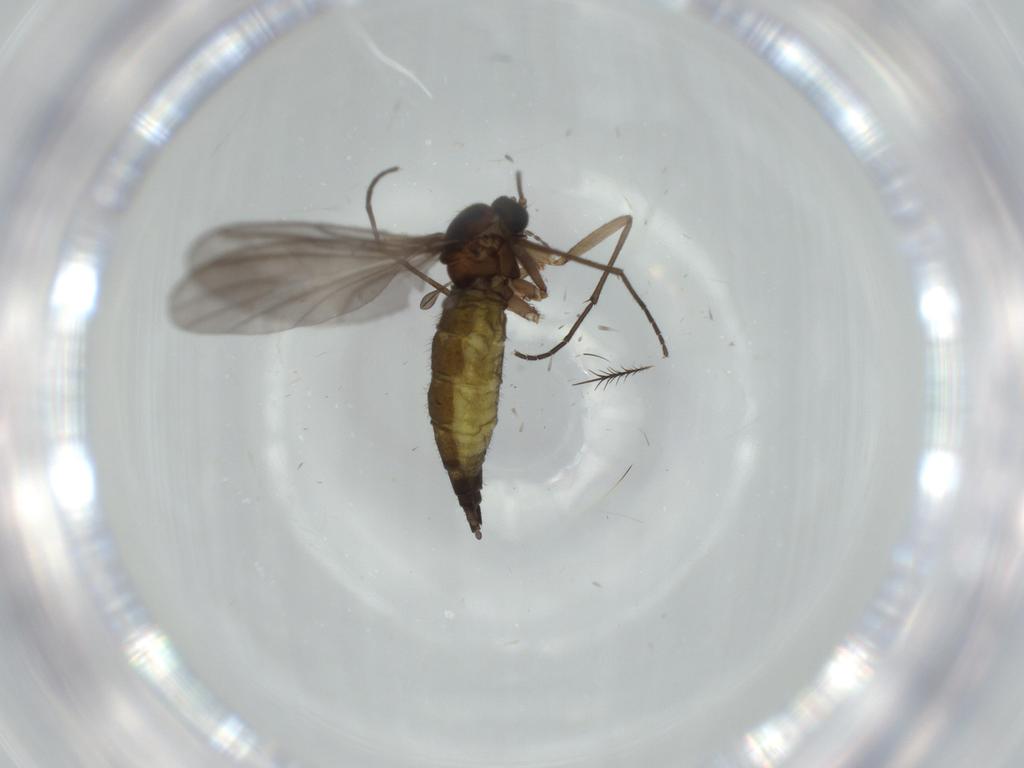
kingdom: Animalia
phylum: Arthropoda
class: Insecta
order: Diptera
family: Sciaridae
